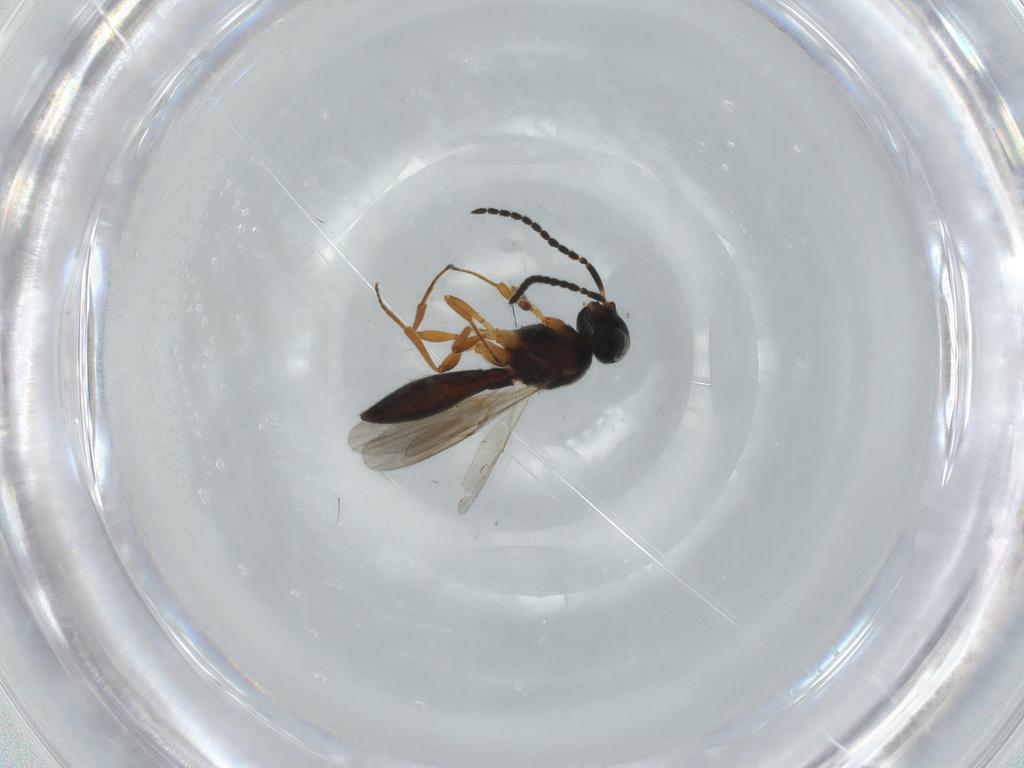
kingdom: Animalia
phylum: Arthropoda
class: Insecta
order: Hymenoptera
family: Scelionidae
